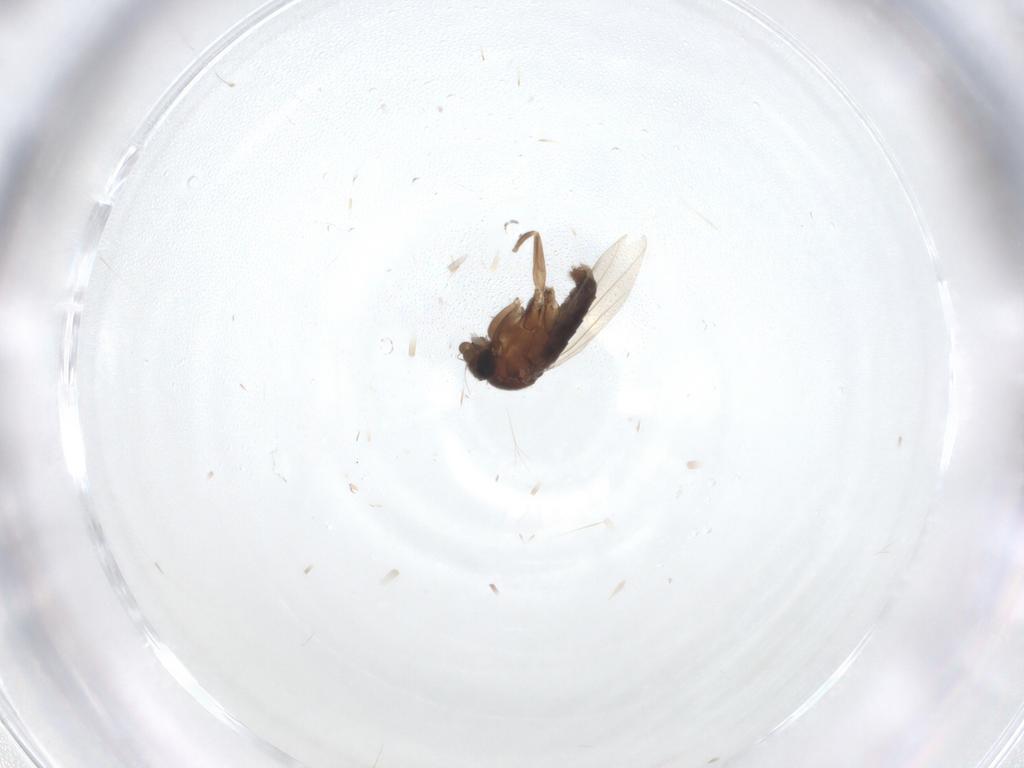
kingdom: Animalia
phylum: Arthropoda
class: Insecta
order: Diptera
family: Phoridae
